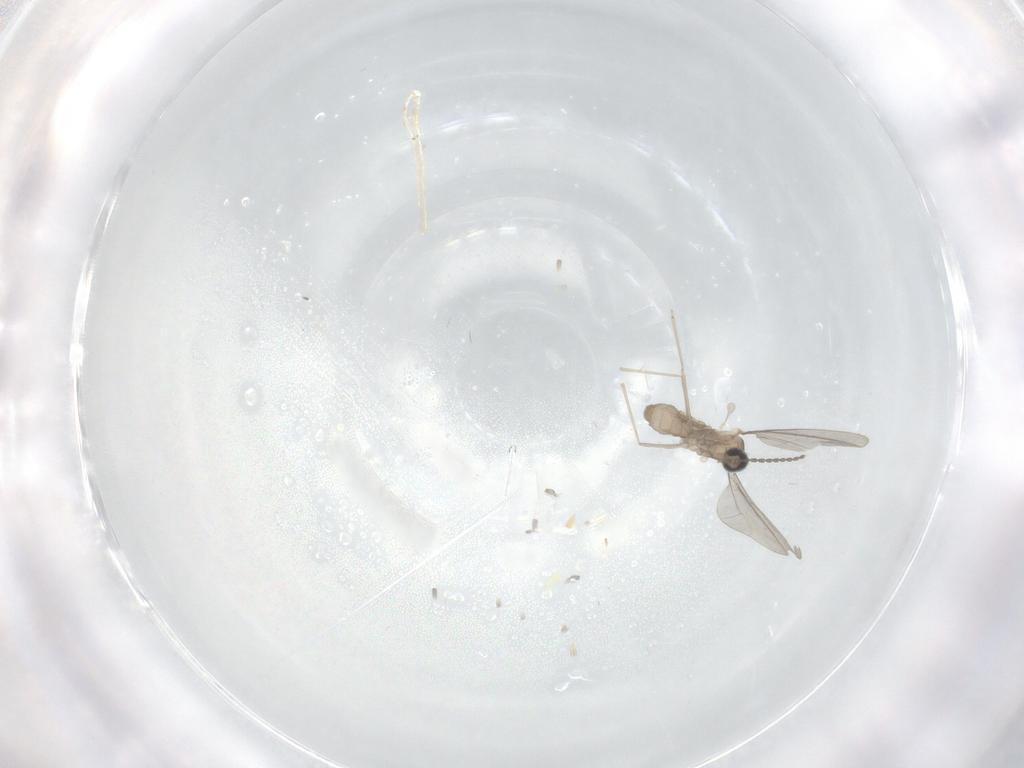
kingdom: Animalia
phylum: Arthropoda
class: Insecta
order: Diptera
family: Cecidomyiidae
